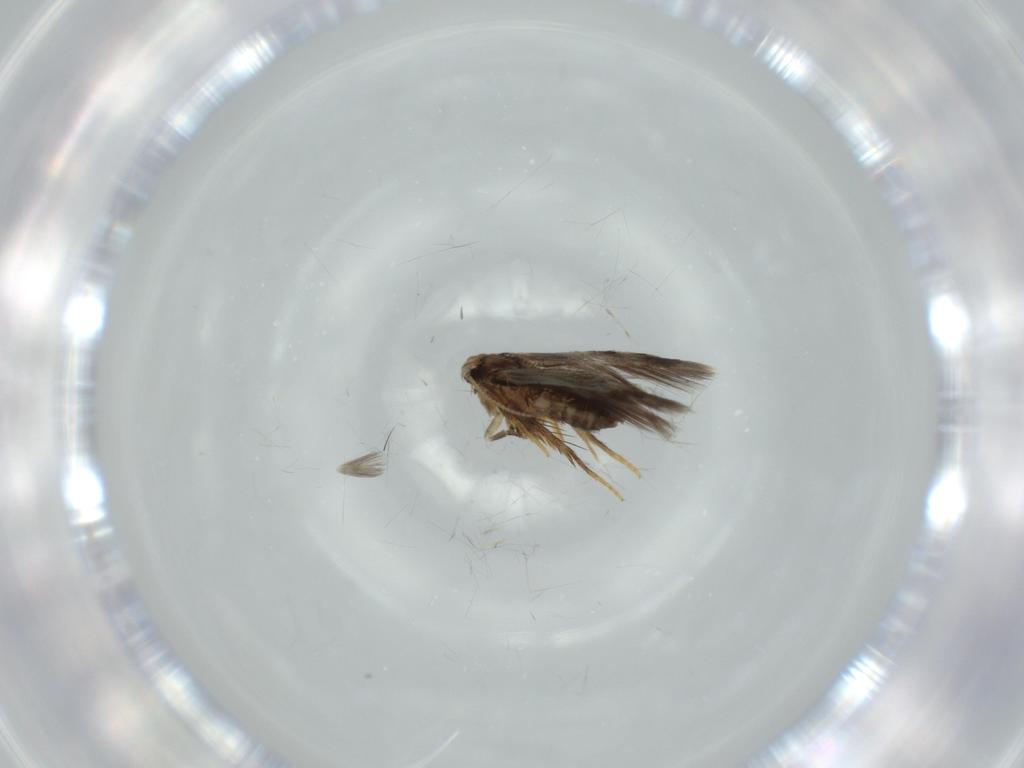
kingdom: Animalia
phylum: Arthropoda
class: Insecta
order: Lepidoptera
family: Nepticulidae
